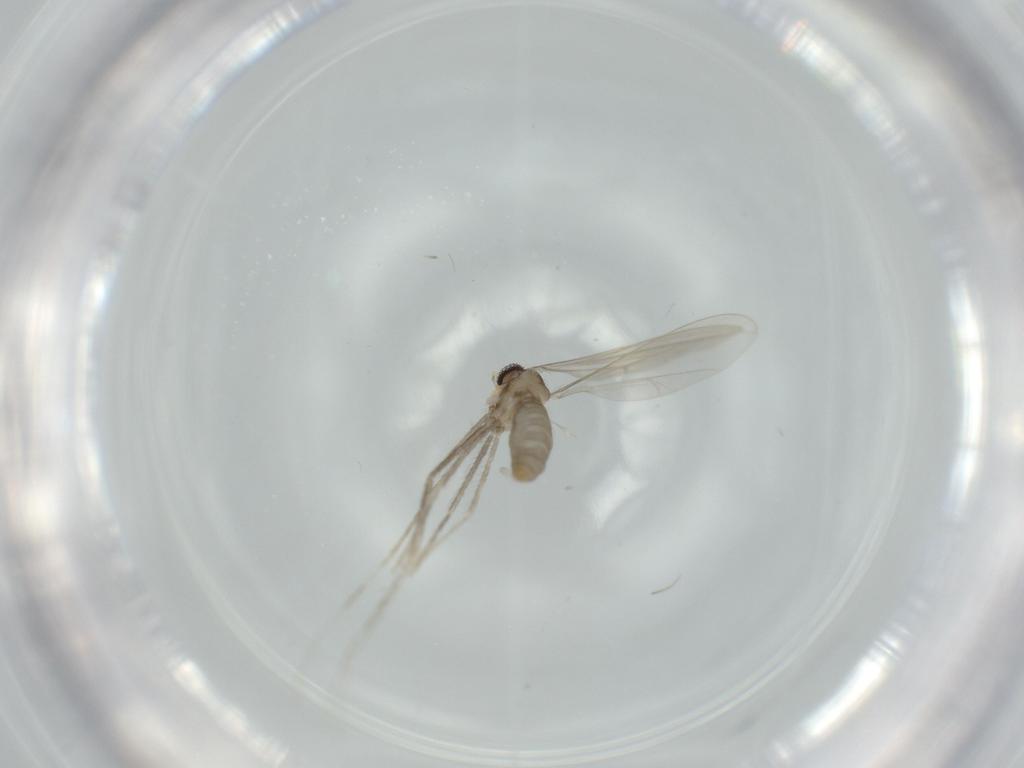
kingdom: Animalia
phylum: Arthropoda
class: Insecta
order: Diptera
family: Cecidomyiidae
